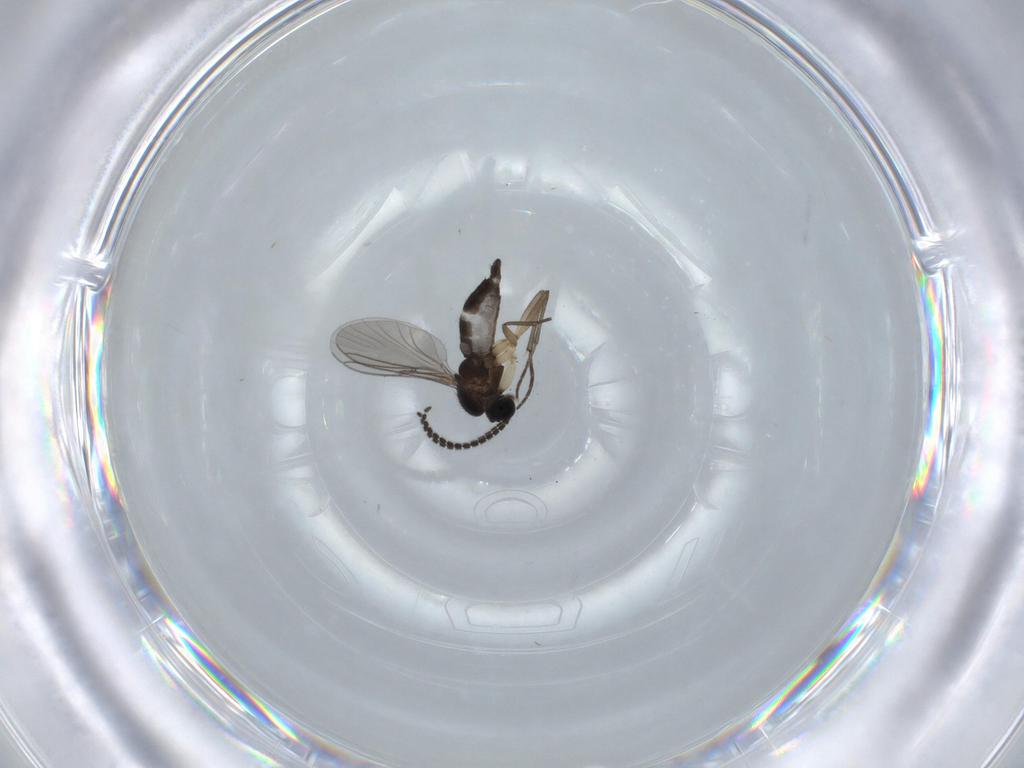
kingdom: Animalia
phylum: Arthropoda
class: Insecta
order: Diptera
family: Sciaridae
